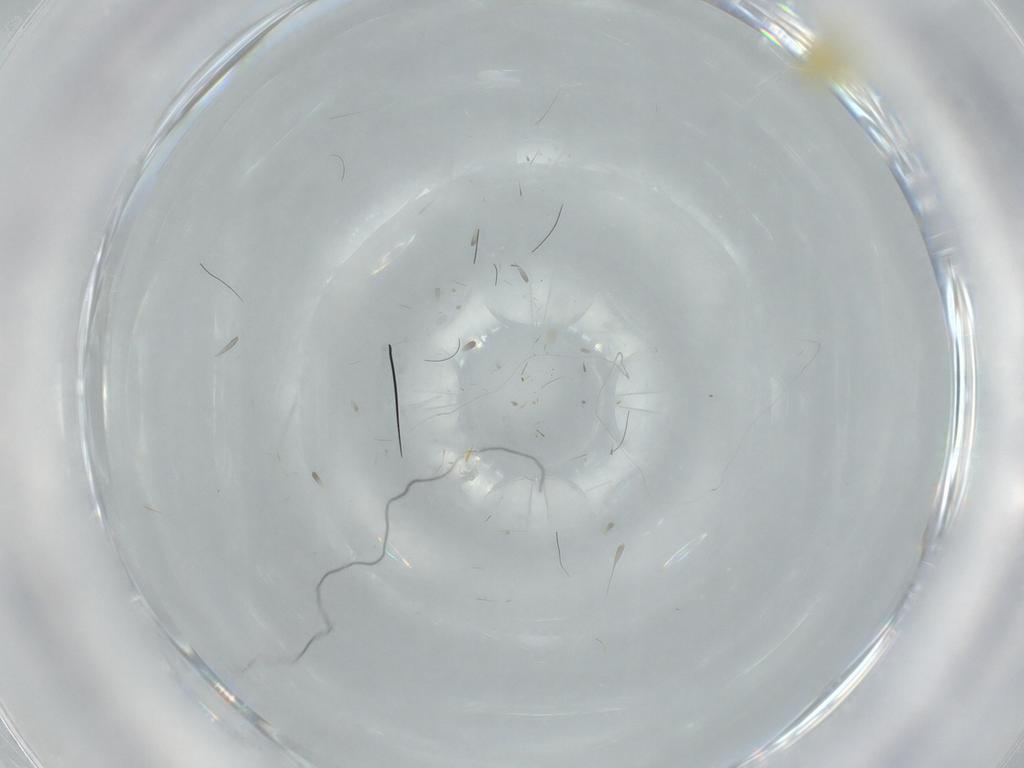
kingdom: Animalia
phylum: Arthropoda
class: Insecta
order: Lepidoptera
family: Autostichidae
